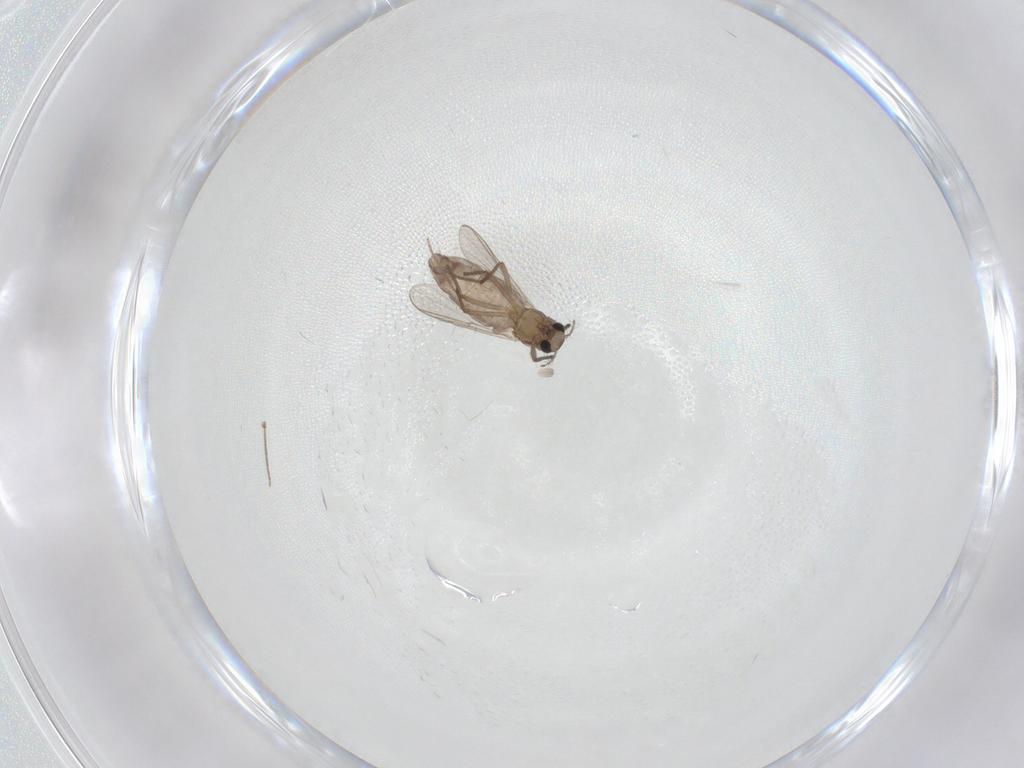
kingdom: Animalia
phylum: Arthropoda
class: Insecta
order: Diptera
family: Chironomidae
